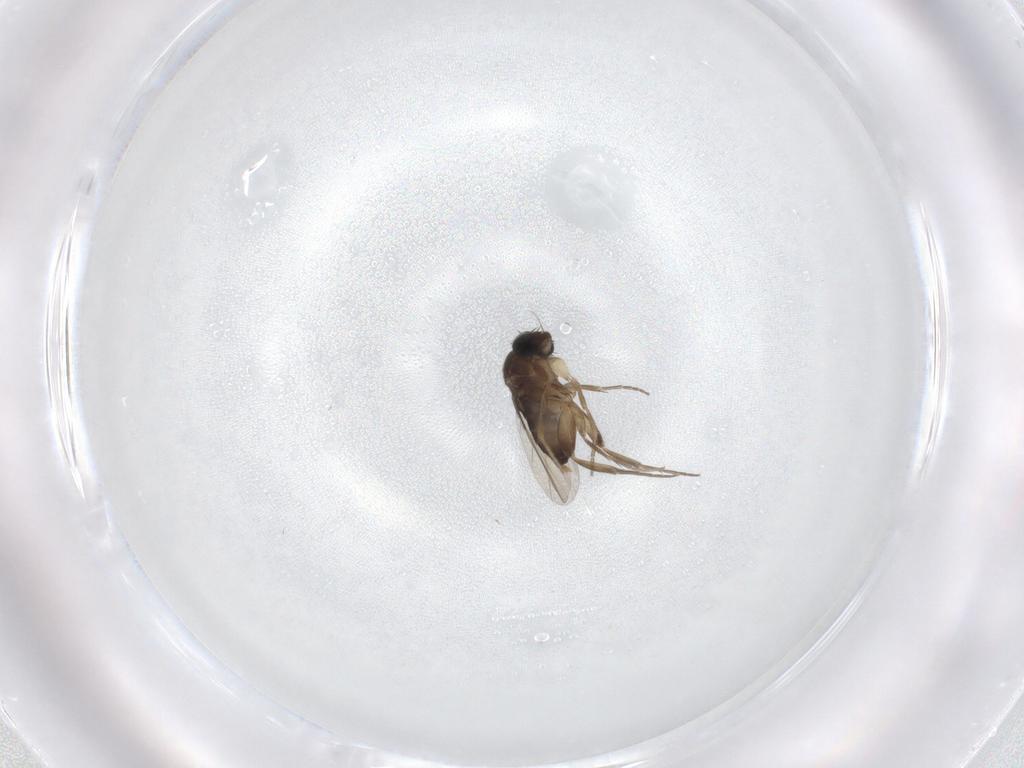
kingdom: Animalia
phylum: Arthropoda
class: Insecta
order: Diptera
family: Phoridae
